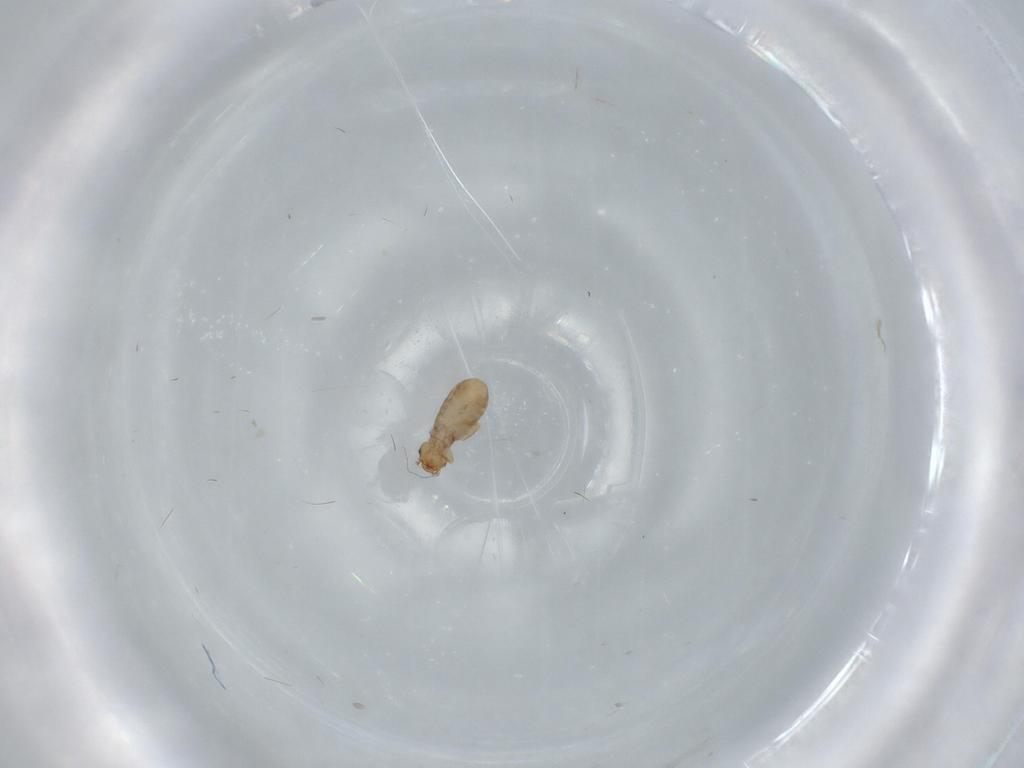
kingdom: Animalia
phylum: Arthropoda
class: Insecta
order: Psocodea
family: Liposcelididae
